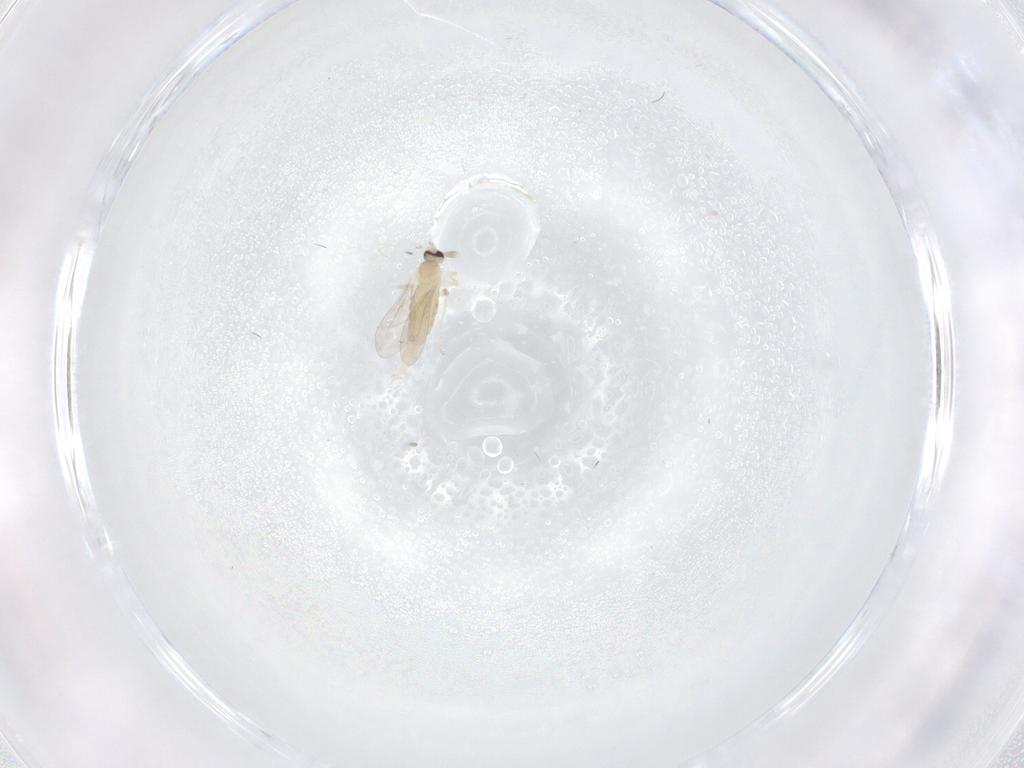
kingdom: Animalia
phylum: Arthropoda
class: Insecta
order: Diptera
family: Cecidomyiidae
